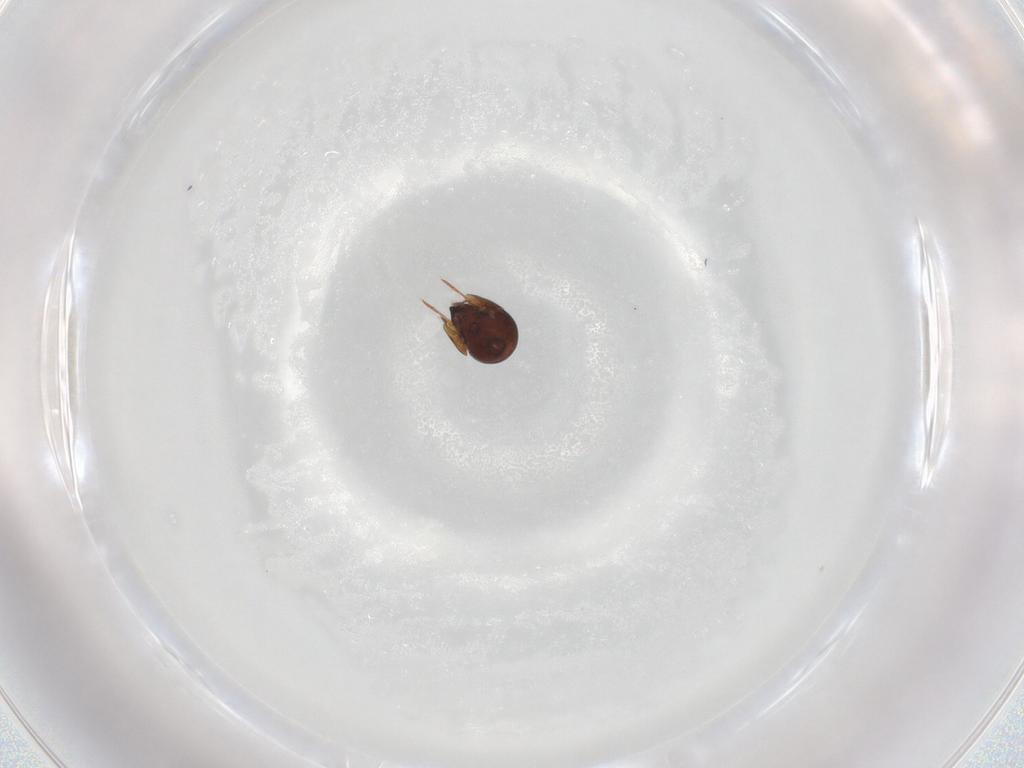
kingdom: Animalia
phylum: Arthropoda
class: Arachnida
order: Sarcoptiformes
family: Ceratozetidae
